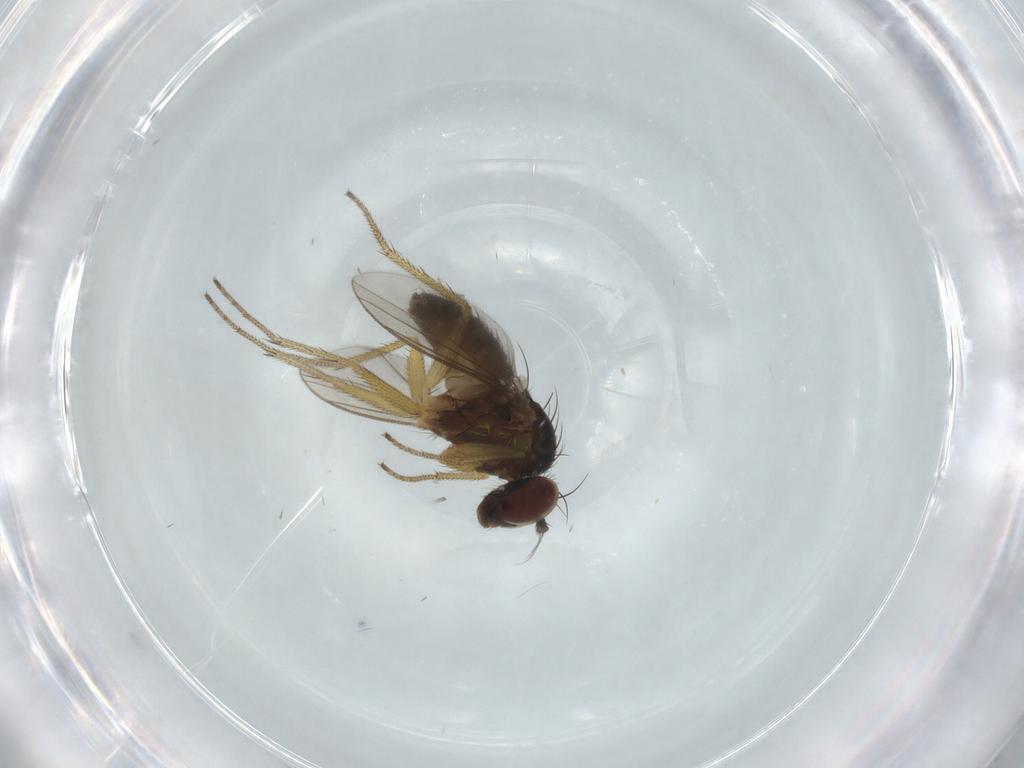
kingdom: Animalia
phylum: Arthropoda
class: Insecta
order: Diptera
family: Dolichopodidae
